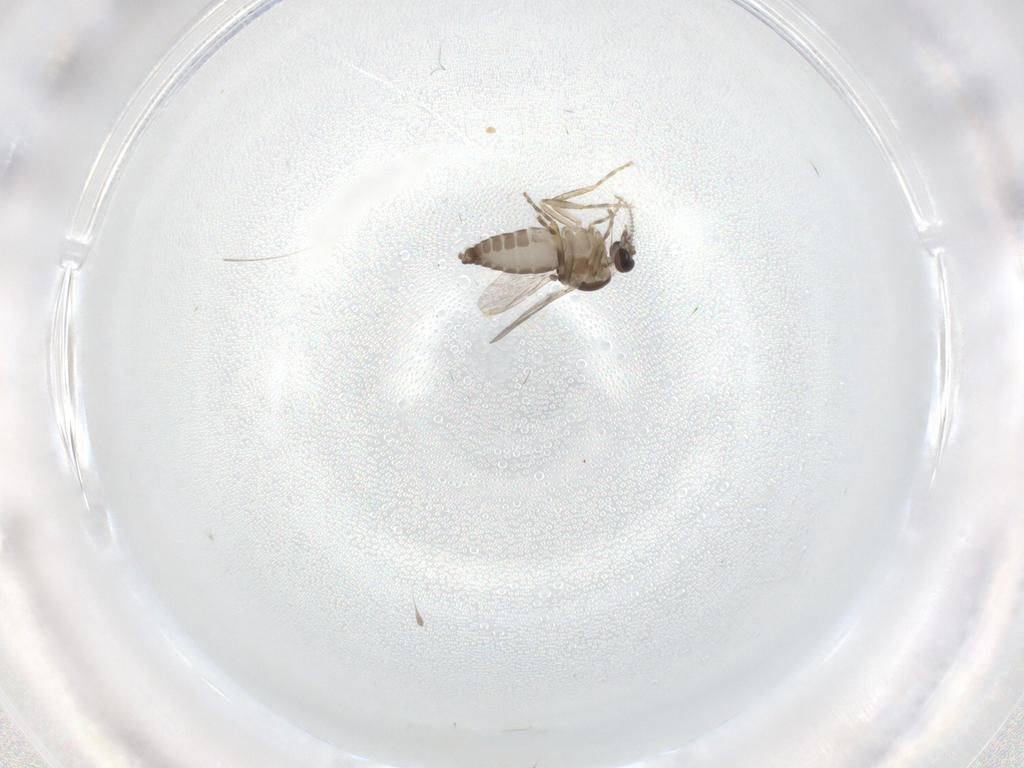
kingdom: Animalia
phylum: Arthropoda
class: Insecta
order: Diptera
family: Ceratopogonidae
